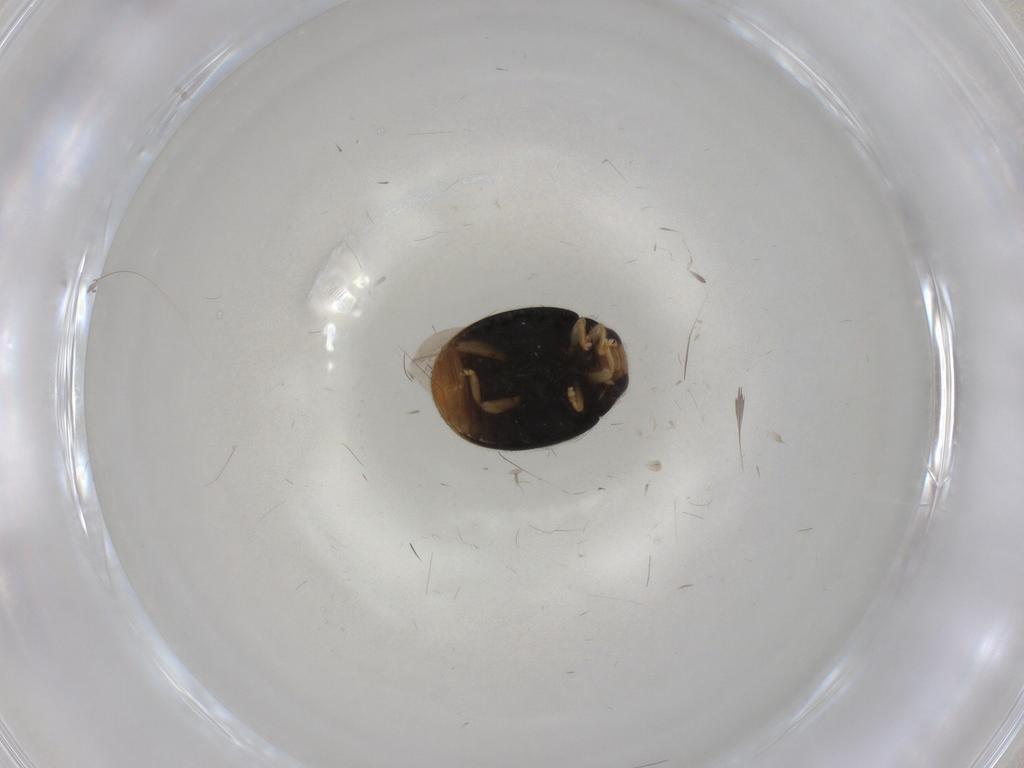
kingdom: Animalia
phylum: Arthropoda
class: Insecta
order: Coleoptera
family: Coccinellidae
